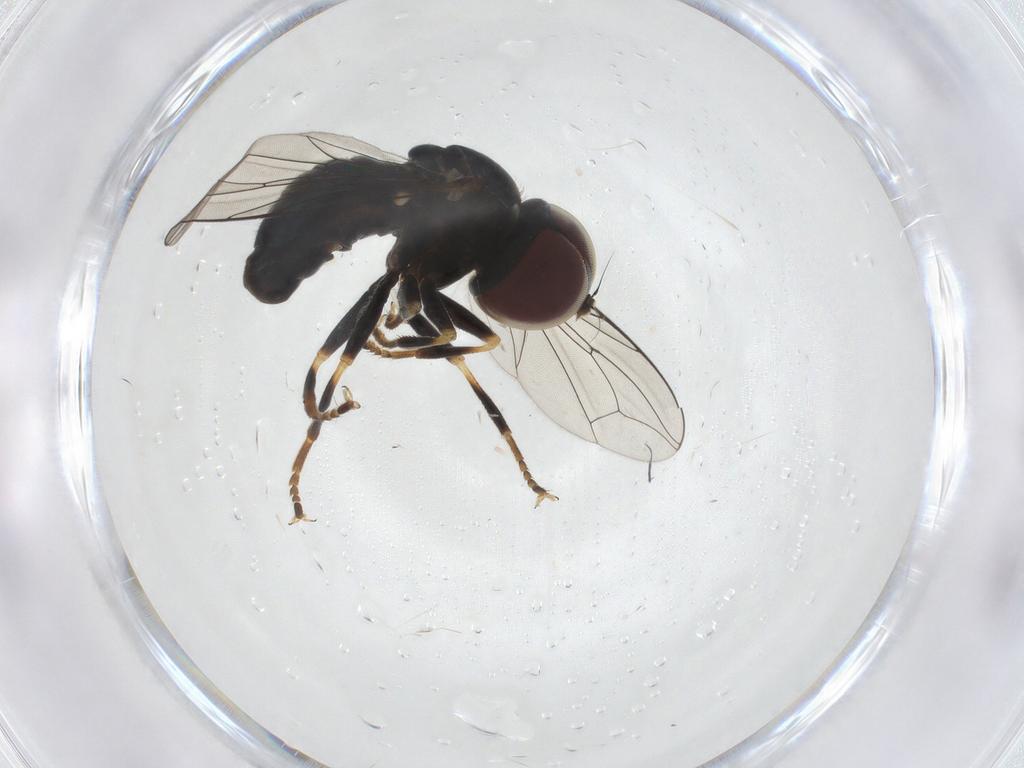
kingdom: Animalia
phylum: Arthropoda
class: Insecta
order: Diptera
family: Pipunculidae
